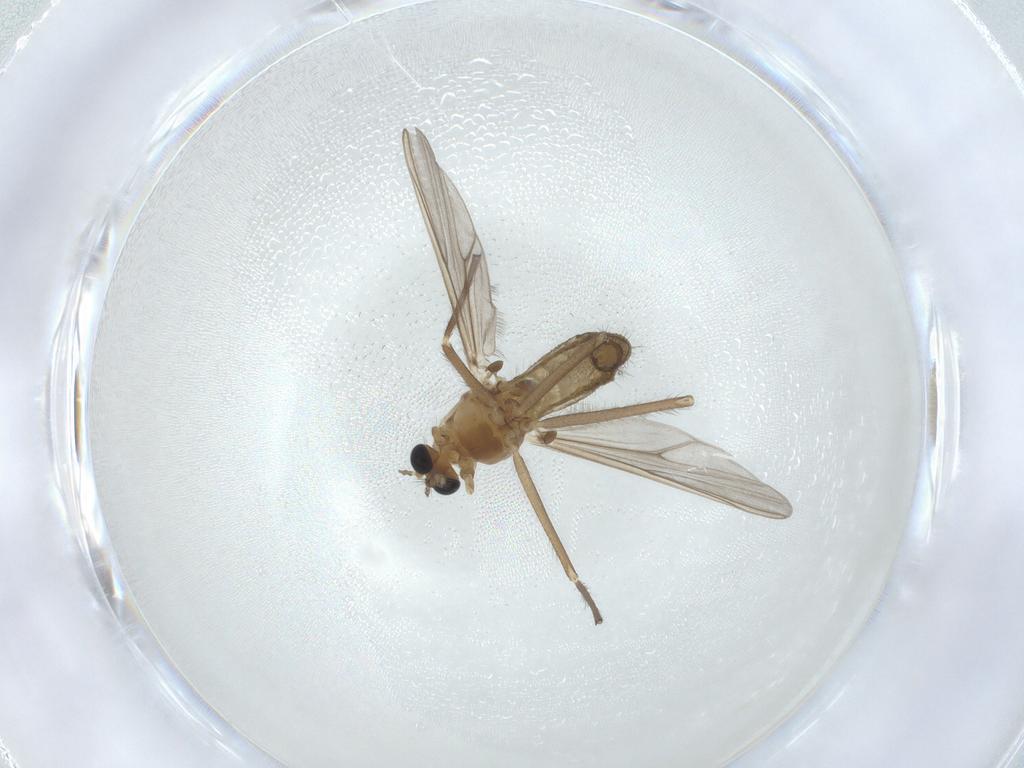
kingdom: Animalia
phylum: Arthropoda
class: Insecta
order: Diptera
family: Chironomidae
